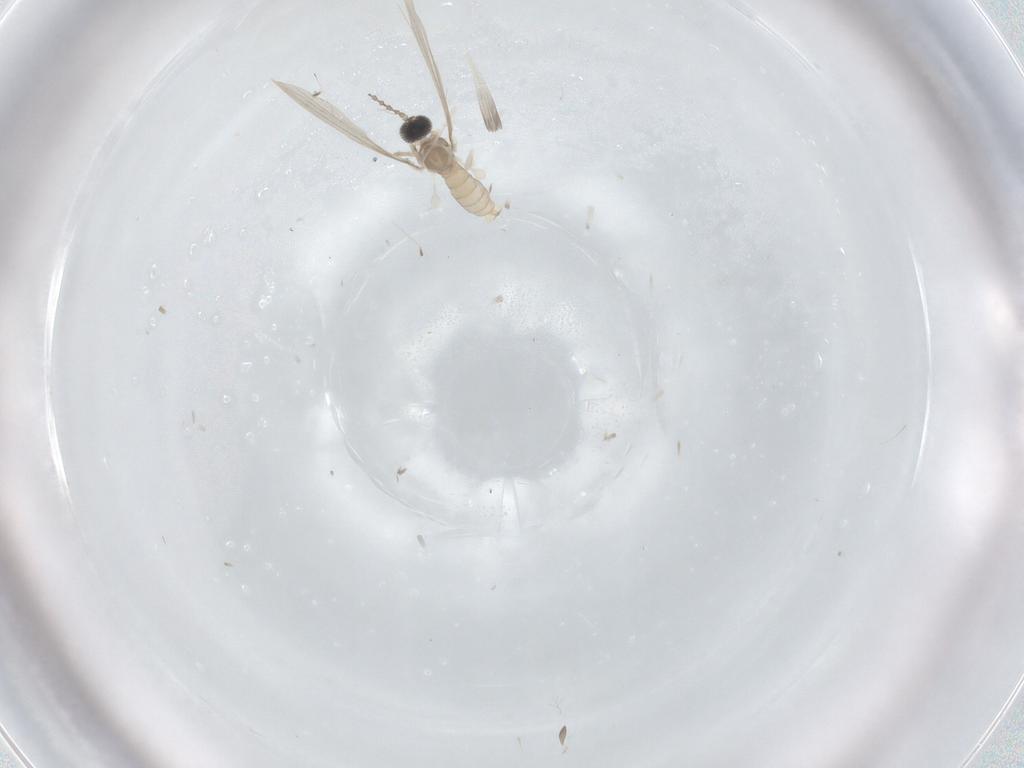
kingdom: Animalia
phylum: Arthropoda
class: Insecta
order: Diptera
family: Cecidomyiidae
